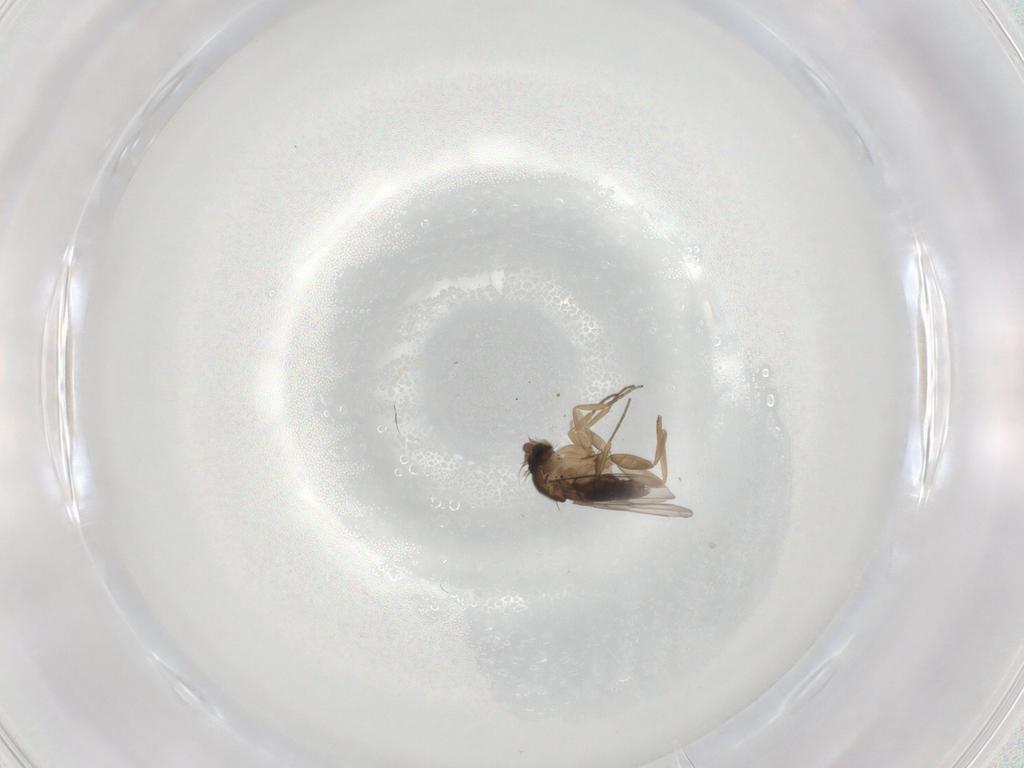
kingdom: Animalia
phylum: Arthropoda
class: Insecta
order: Diptera
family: Phoridae
